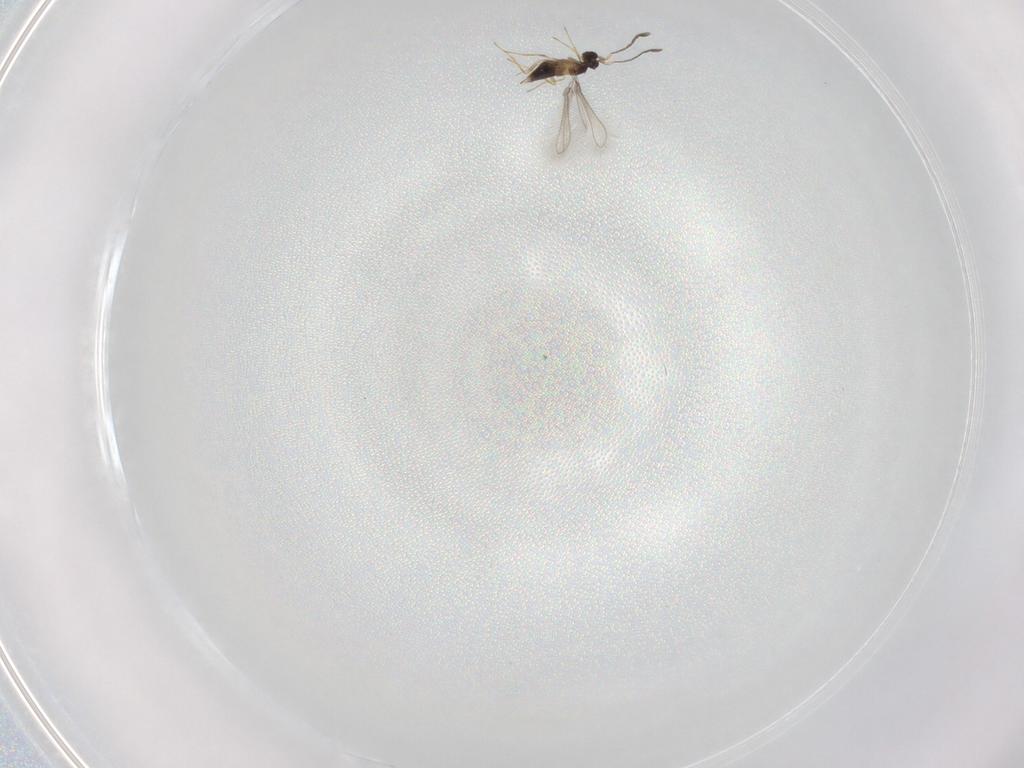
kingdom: Animalia
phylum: Arthropoda
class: Insecta
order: Hymenoptera
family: Mymaridae
